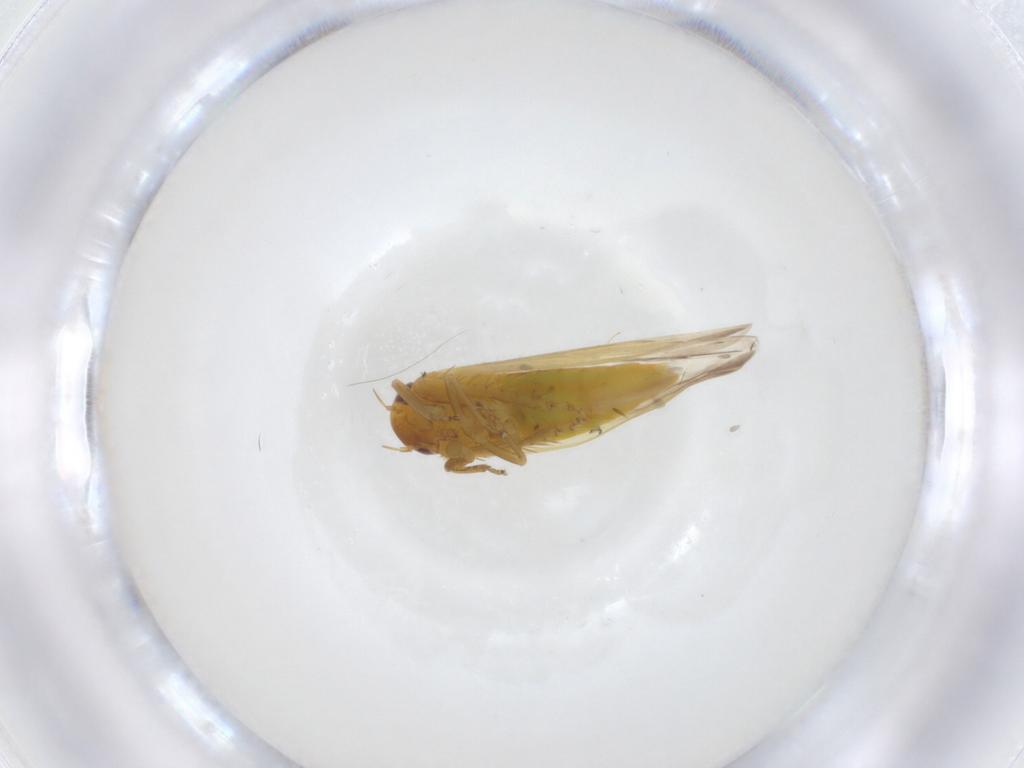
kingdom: Animalia
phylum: Arthropoda
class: Insecta
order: Hemiptera
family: Cicadellidae
